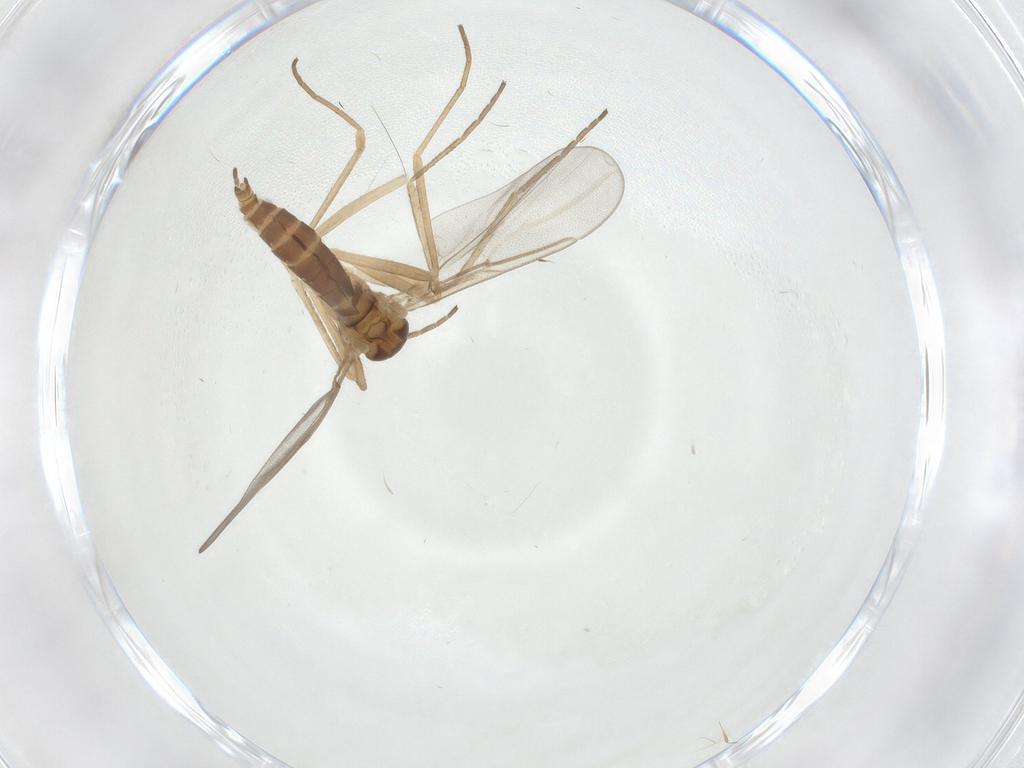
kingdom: Animalia
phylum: Arthropoda
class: Insecta
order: Diptera
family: Cecidomyiidae
